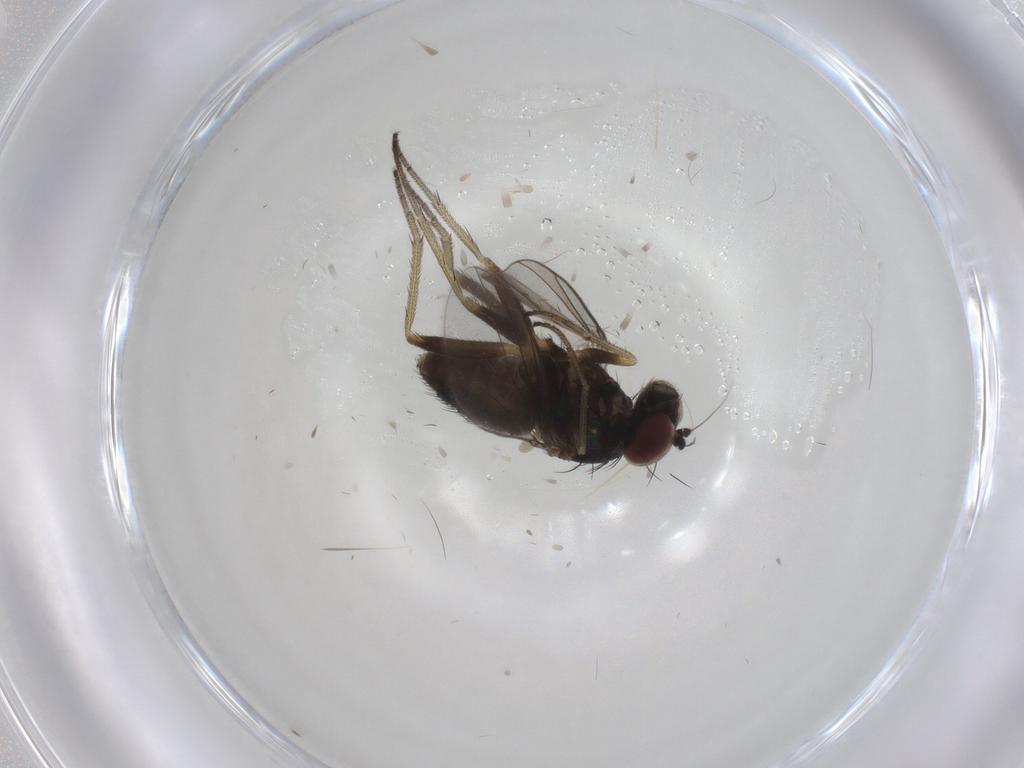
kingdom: Animalia
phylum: Arthropoda
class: Insecta
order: Diptera
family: Dolichopodidae
